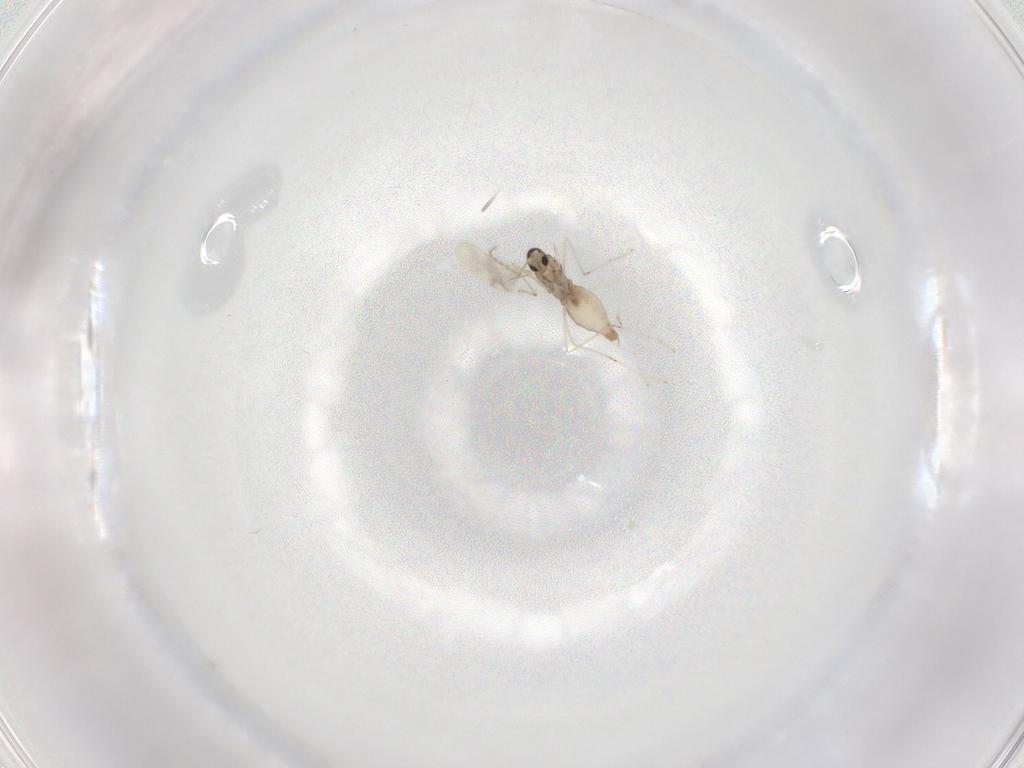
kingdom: Animalia
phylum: Arthropoda
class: Insecta
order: Diptera
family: Cecidomyiidae
